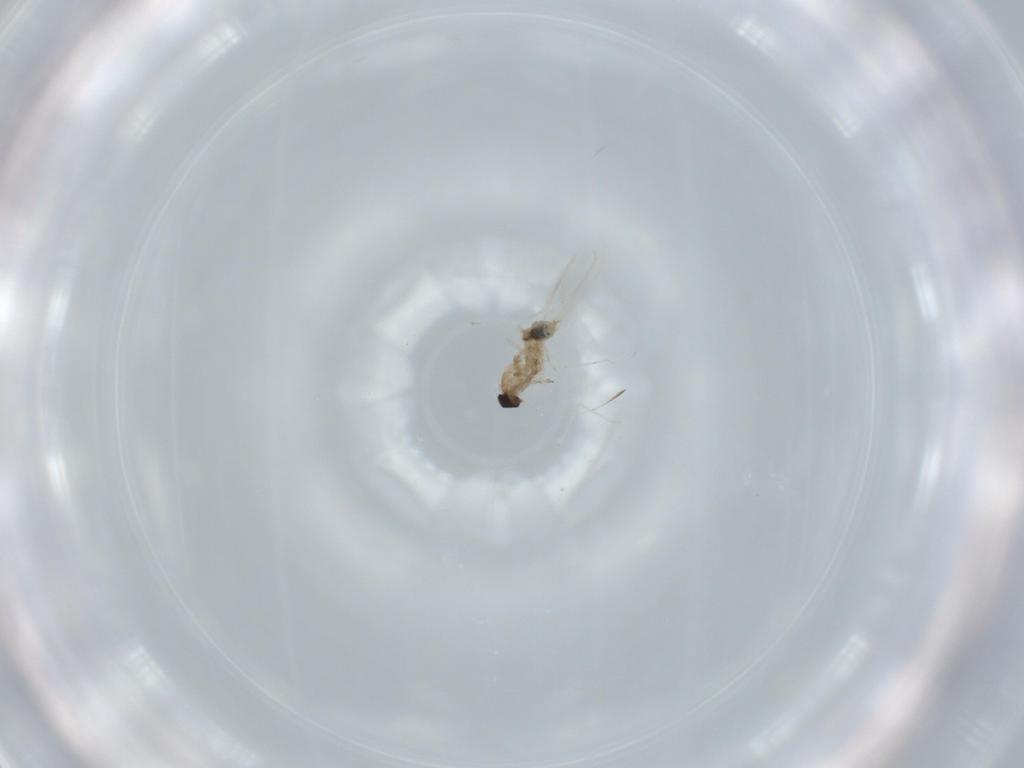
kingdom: Animalia
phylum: Arthropoda
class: Insecta
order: Diptera
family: Cecidomyiidae
